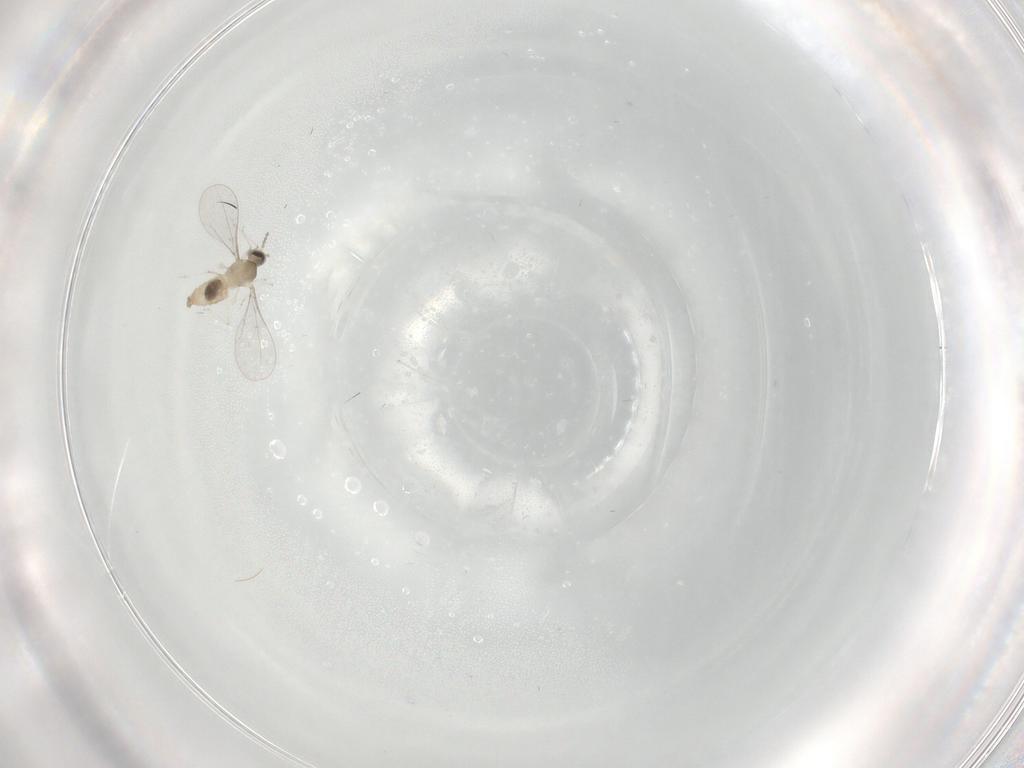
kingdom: Animalia
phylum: Arthropoda
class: Insecta
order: Diptera
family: Cecidomyiidae
